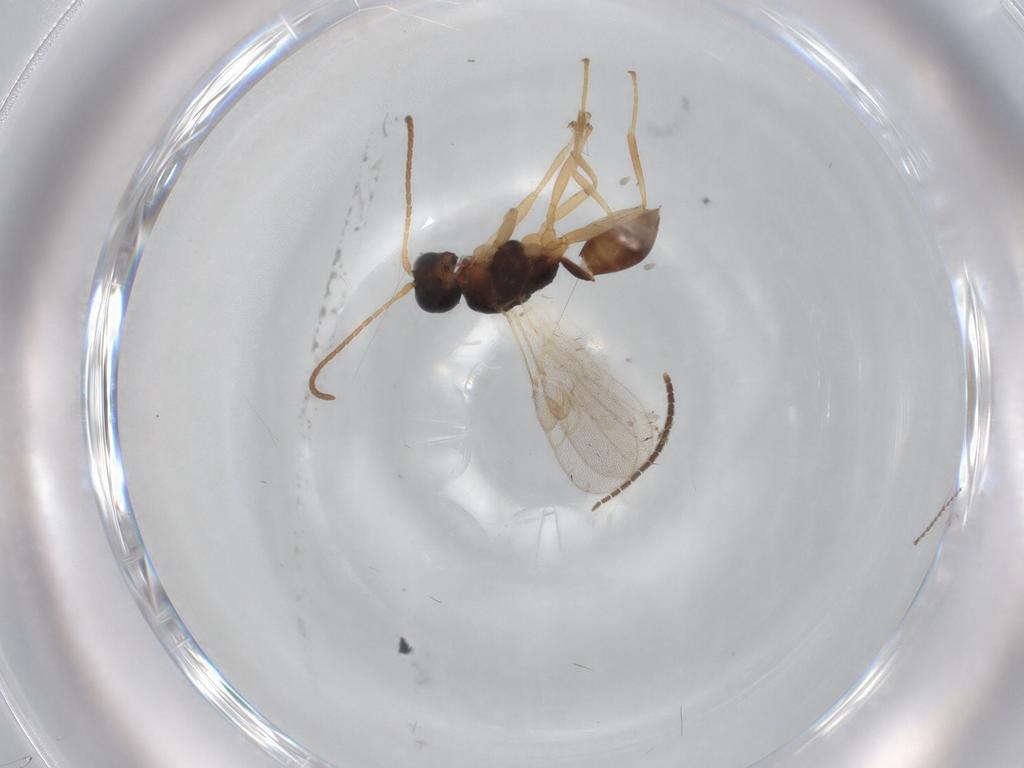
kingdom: Animalia
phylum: Arthropoda
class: Insecta
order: Hymenoptera
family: Braconidae
